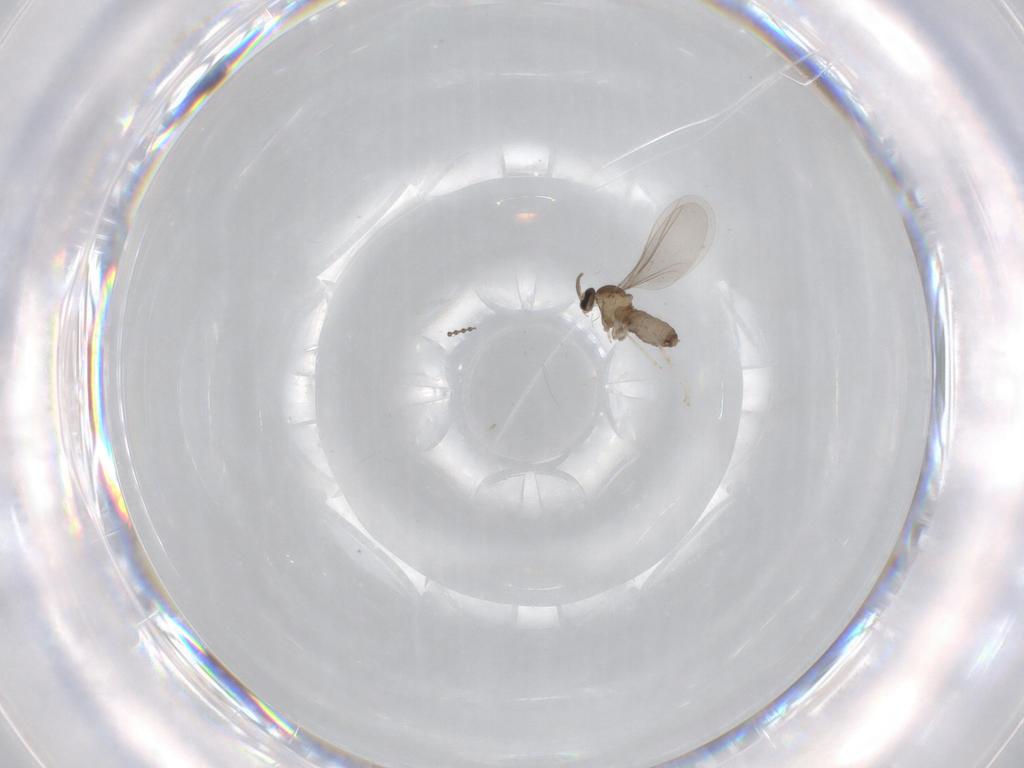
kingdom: Animalia
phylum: Arthropoda
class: Insecta
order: Diptera
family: Cecidomyiidae
